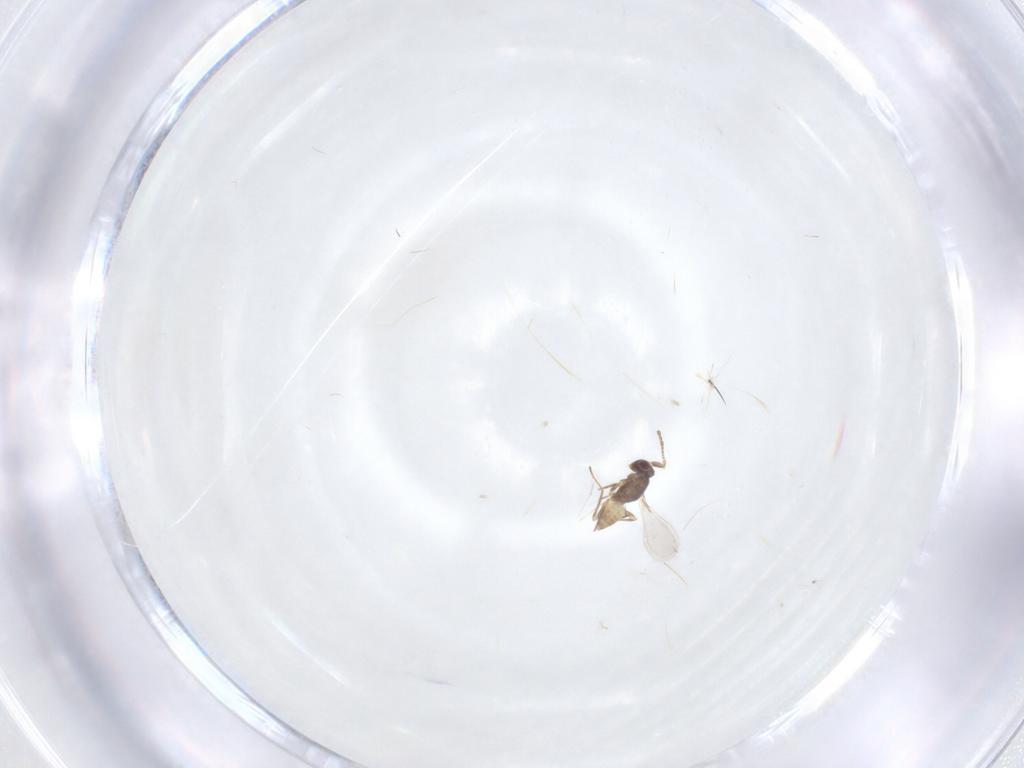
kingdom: Animalia
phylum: Arthropoda
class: Insecta
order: Hymenoptera
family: Mymaridae
